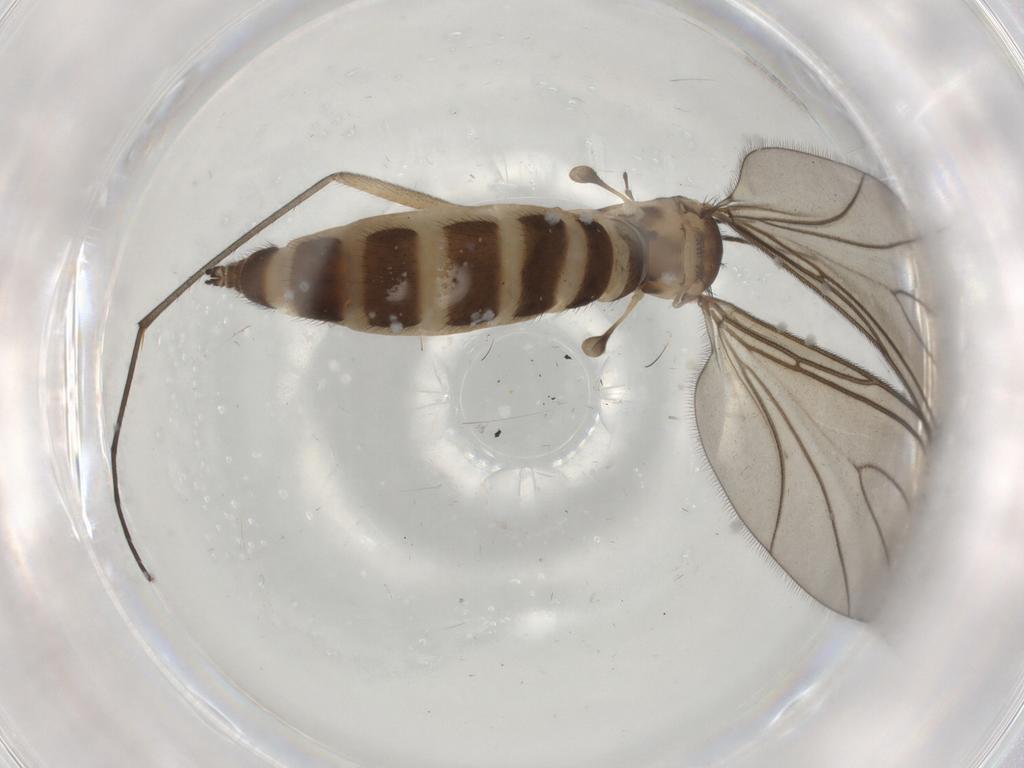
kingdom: Animalia
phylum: Arthropoda
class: Insecta
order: Diptera
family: Sciaridae
